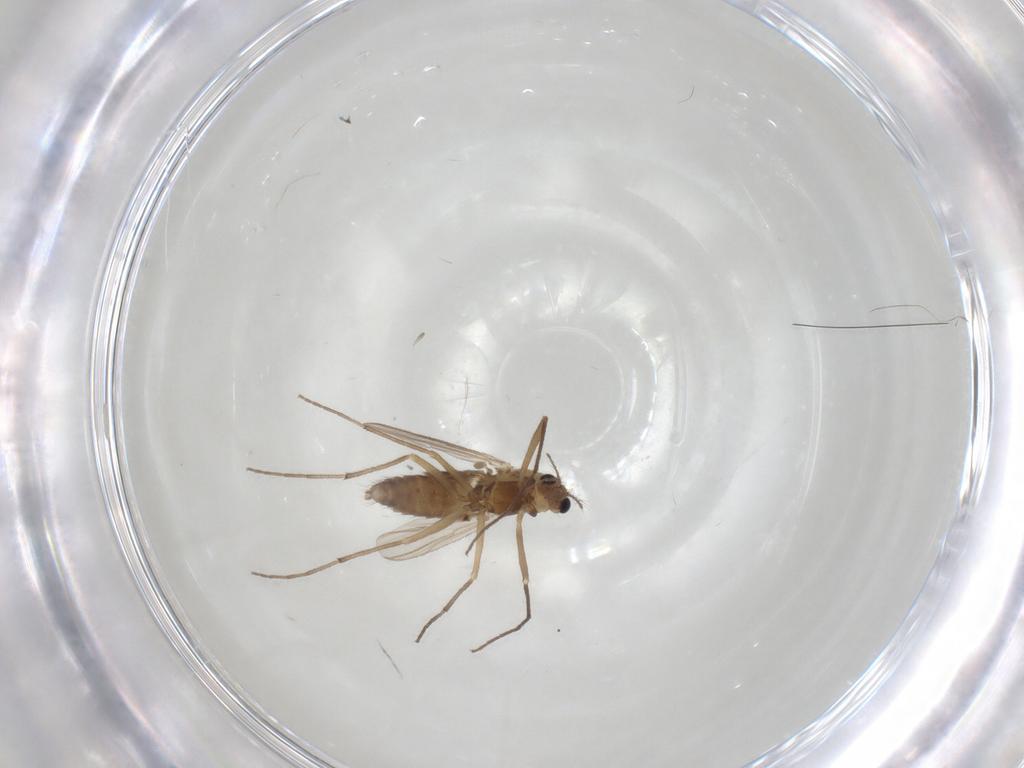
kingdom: Animalia
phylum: Arthropoda
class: Insecta
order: Diptera
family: Chironomidae
